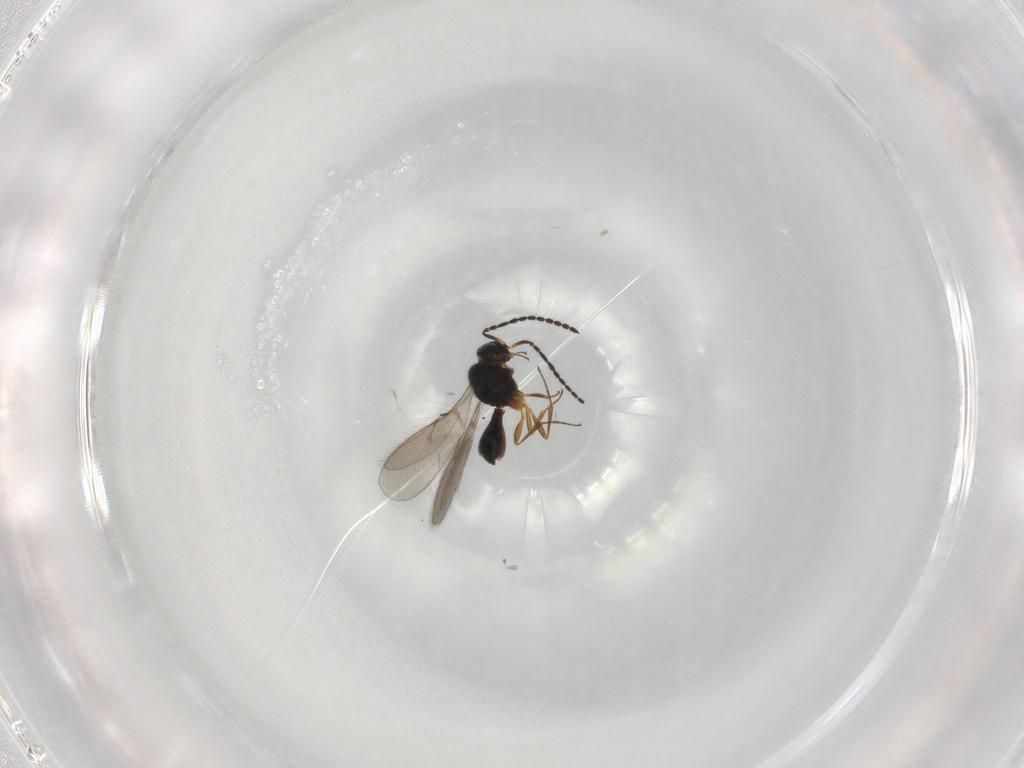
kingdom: Animalia
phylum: Arthropoda
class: Insecta
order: Hymenoptera
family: Scelionidae
